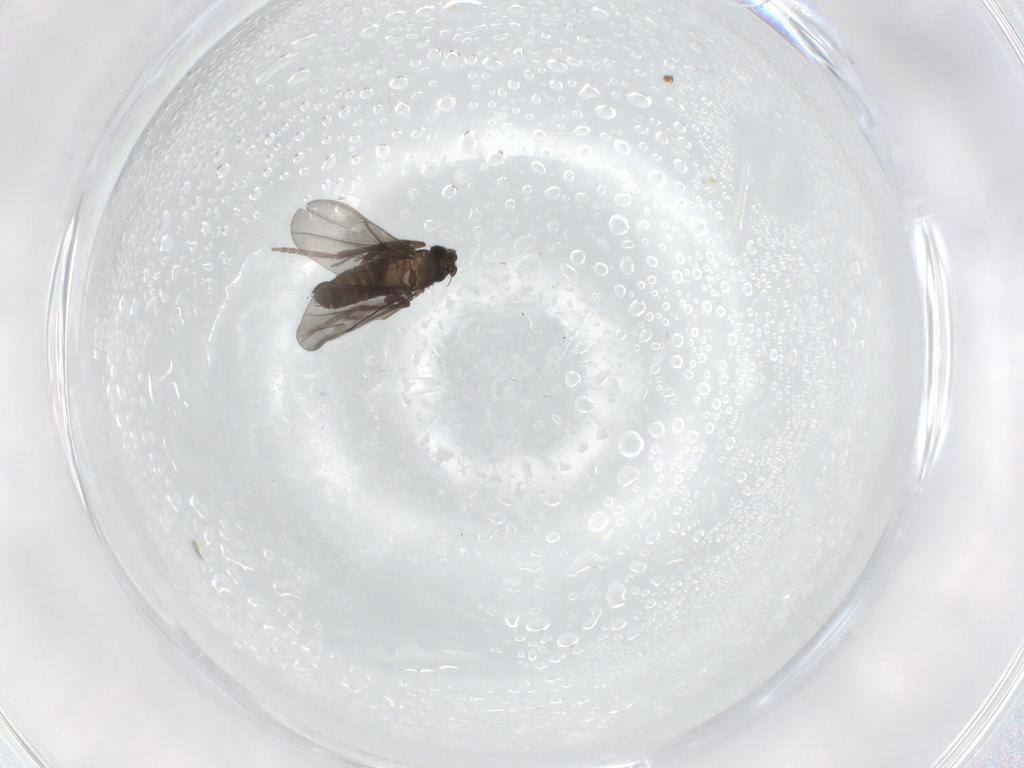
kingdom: Animalia
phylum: Arthropoda
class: Insecta
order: Diptera
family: Phoridae
